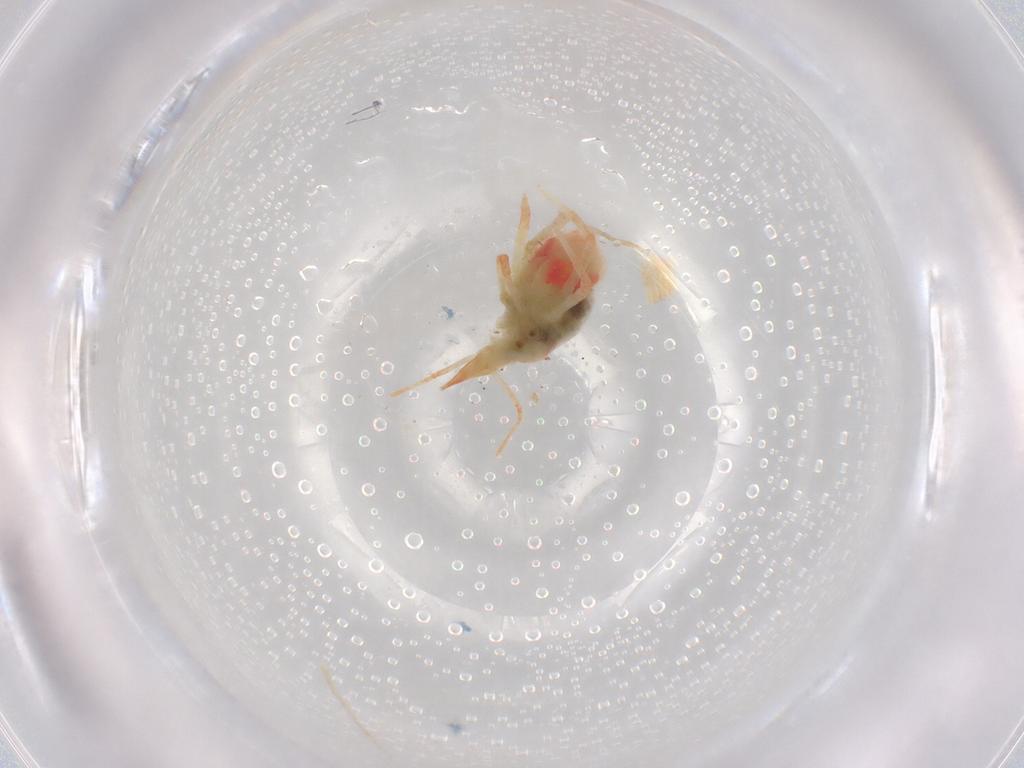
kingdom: Animalia
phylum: Arthropoda
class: Arachnida
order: Trombidiformes
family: Bdellidae
